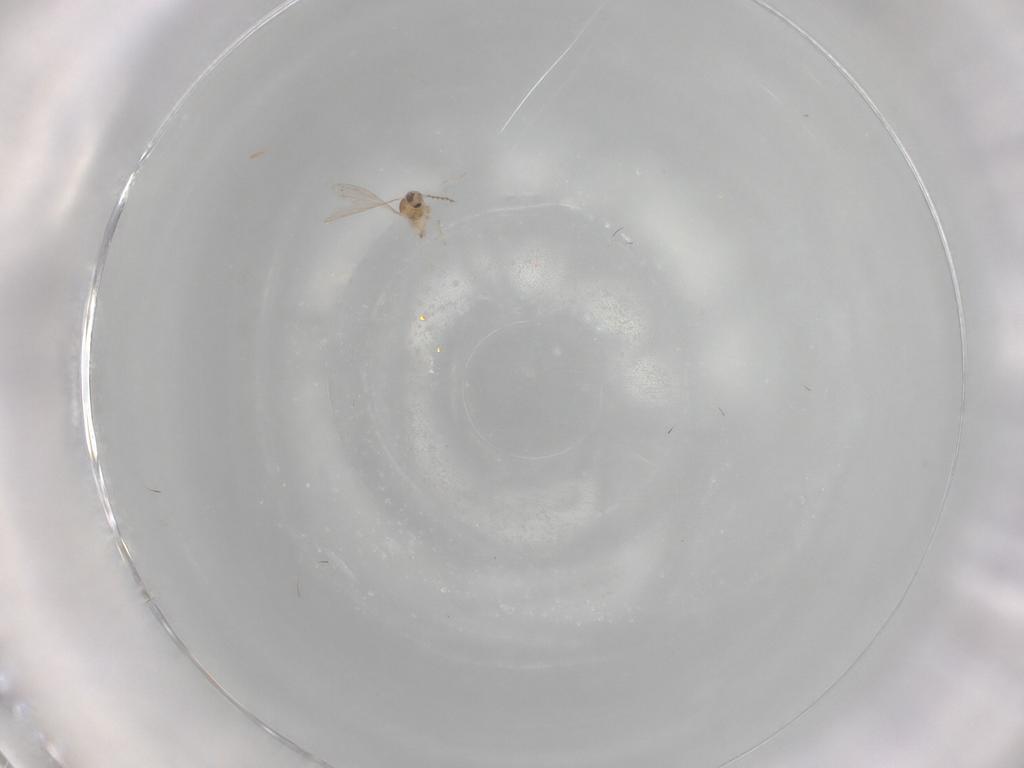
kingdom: Animalia
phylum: Arthropoda
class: Insecta
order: Diptera
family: Cecidomyiidae
